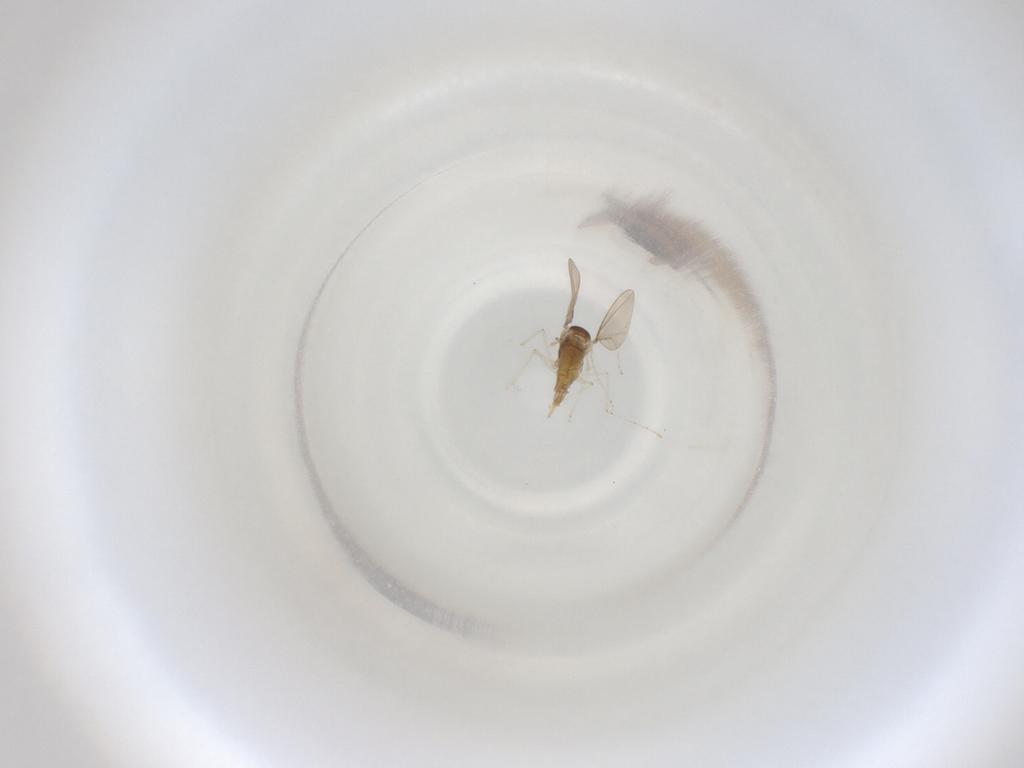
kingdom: Animalia
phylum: Arthropoda
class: Insecta
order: Diptera
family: Cecidomyiidae
